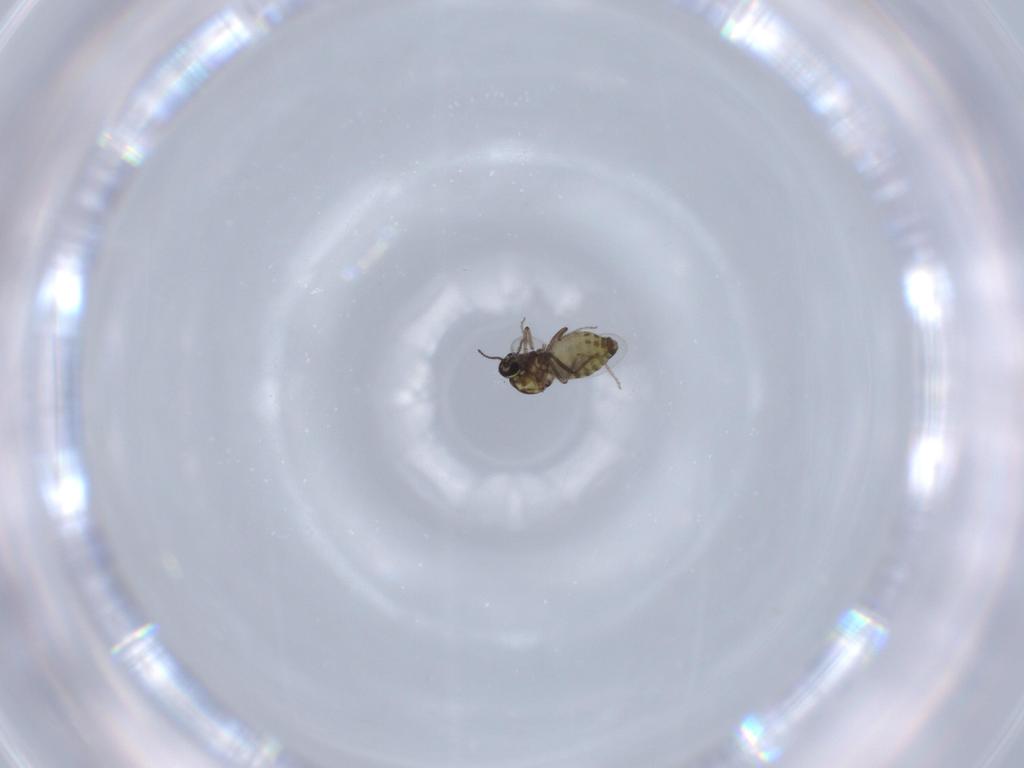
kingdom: Animalia
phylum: Arthropoda
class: Insecta
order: Diptera
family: Ceratopogonidae
